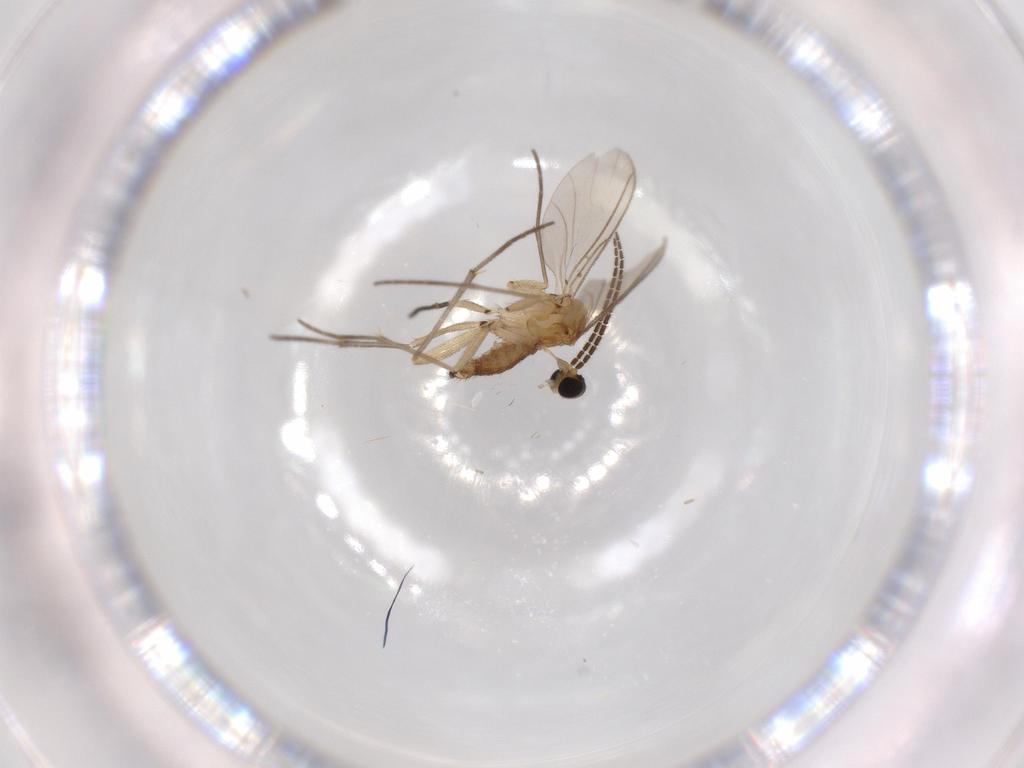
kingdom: Animalia
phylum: Arthropoda
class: Insecta
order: Diptera
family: Sciaridae
